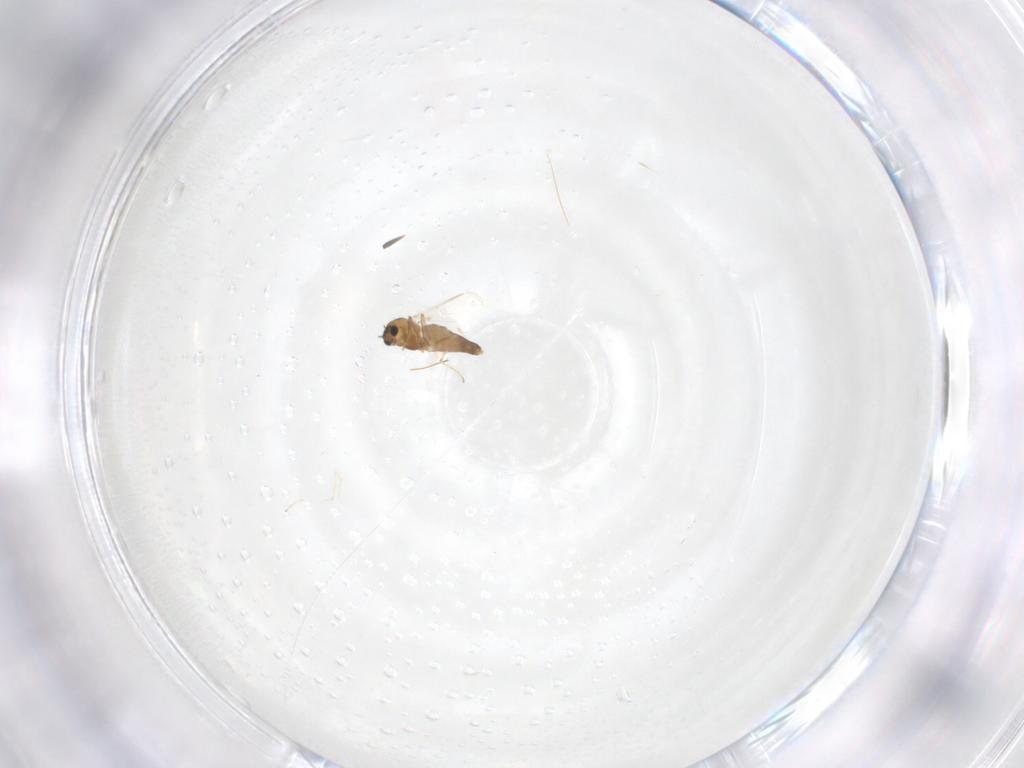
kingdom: Animalia
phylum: Arthropoda
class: Insecta
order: Diptera
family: Chironomidae
